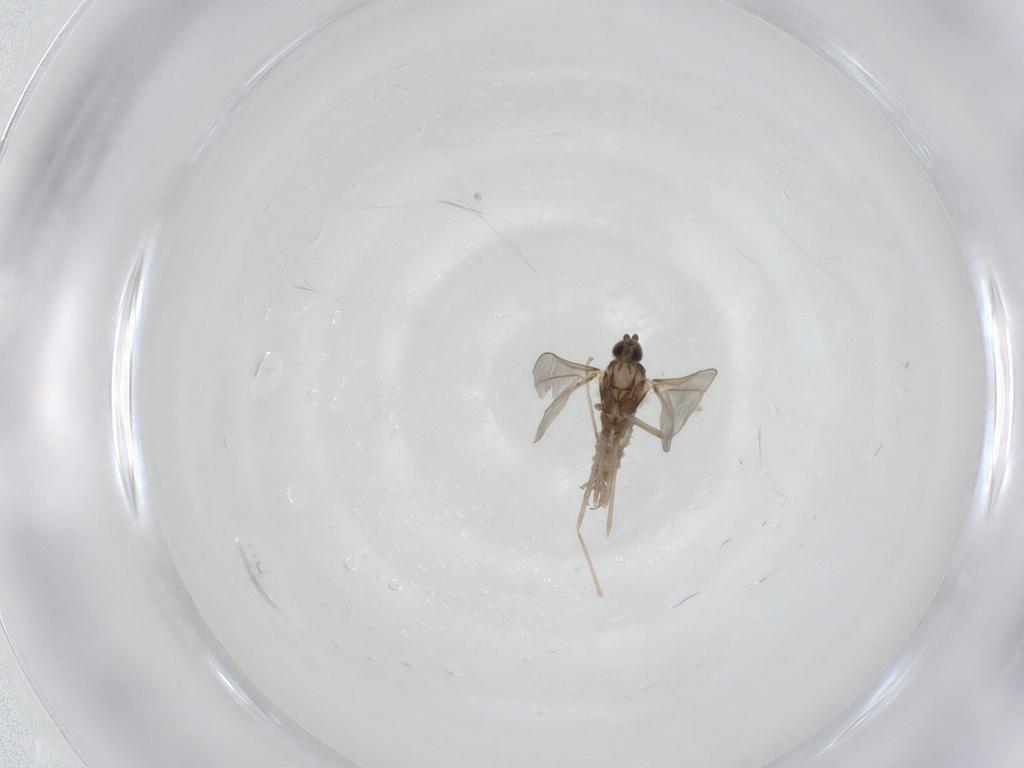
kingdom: Animalia
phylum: Arthropoda
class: Insecta
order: Diptera
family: Cecidomyiidae
